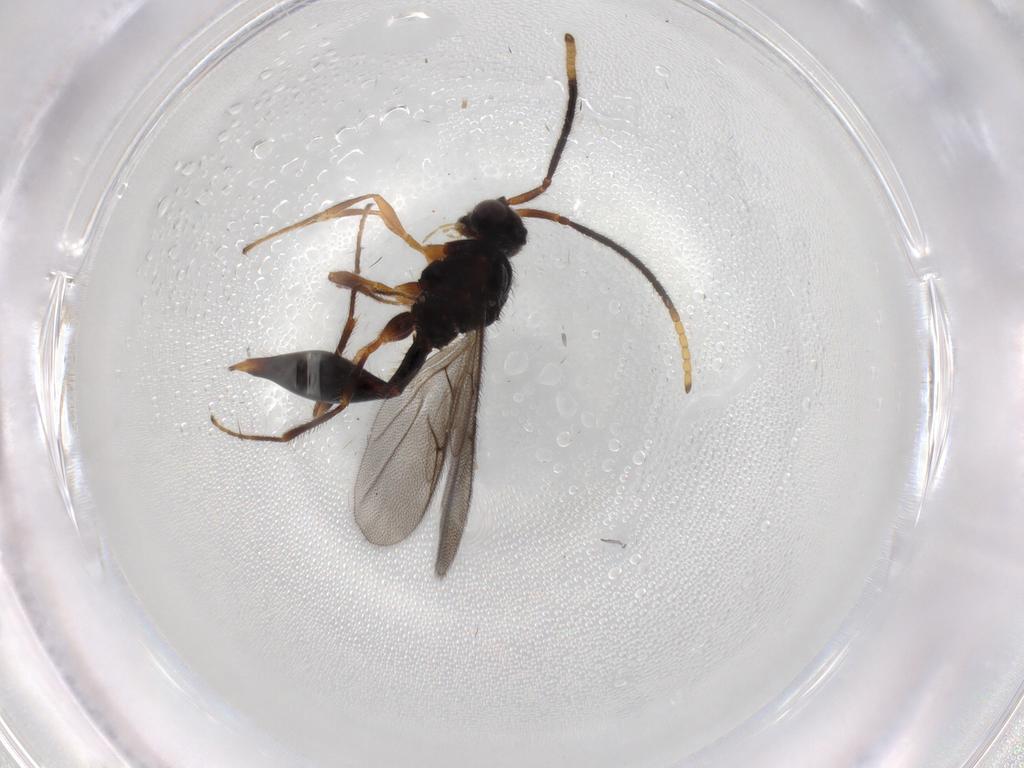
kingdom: Animalia
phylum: Arthropoda
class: Insecta
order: Hymenoptera
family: Diapriidae
